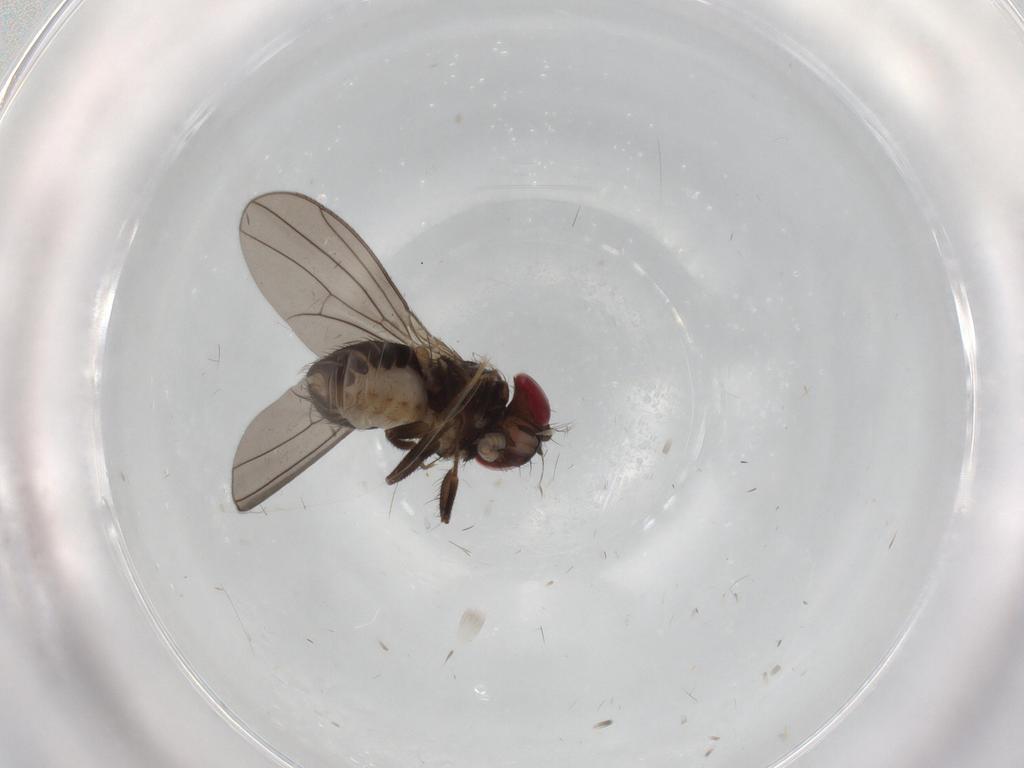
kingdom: Animalia
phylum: Arthropoda
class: Insecta
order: Diptera
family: Drosophilidae
